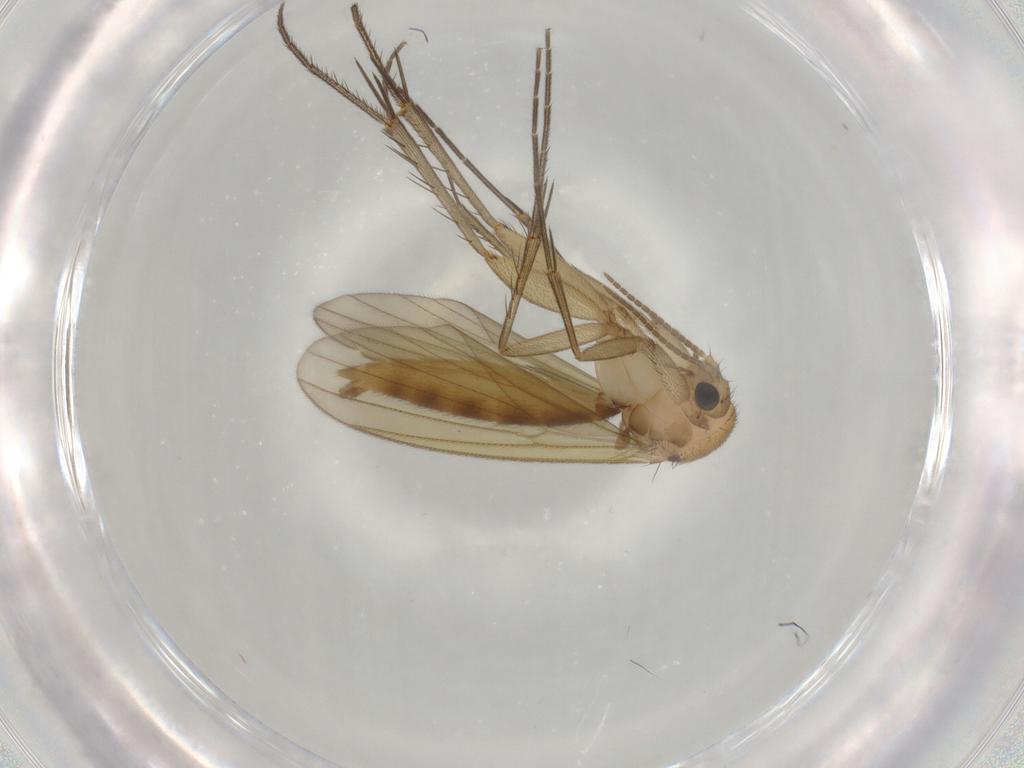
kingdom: Animalia
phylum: Arthropoda
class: Insecta
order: Diptera
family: Mycetophilidae
